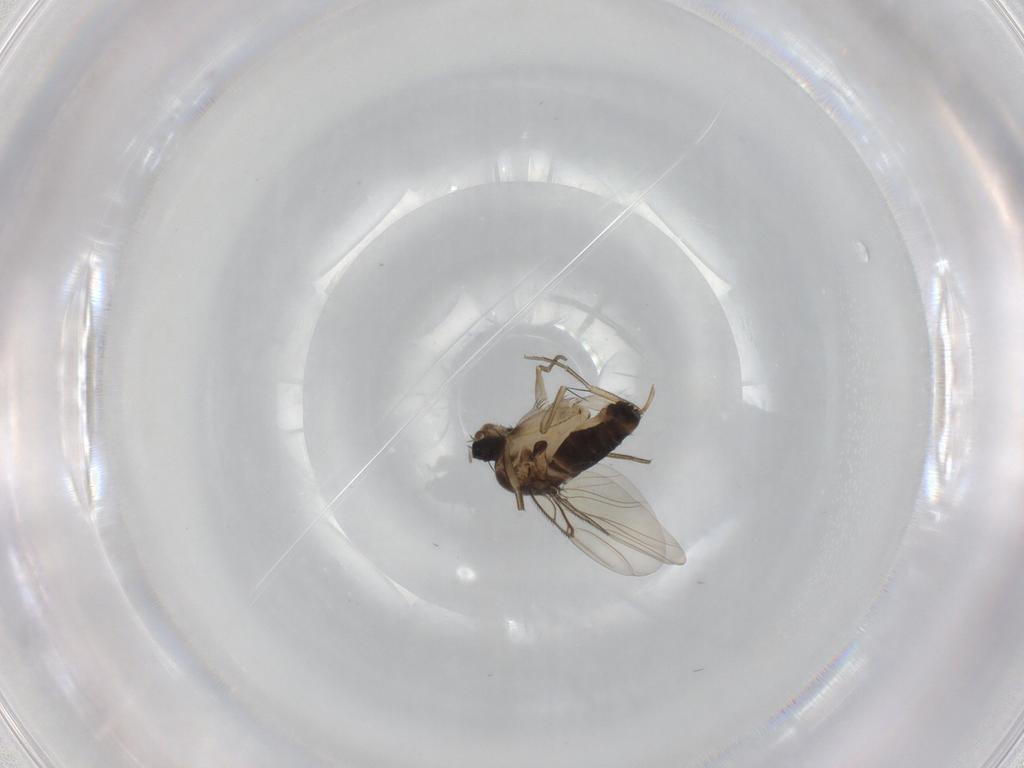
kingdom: Animalia
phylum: Arthropoda
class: Insecta
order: Diptera
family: Phoridae
